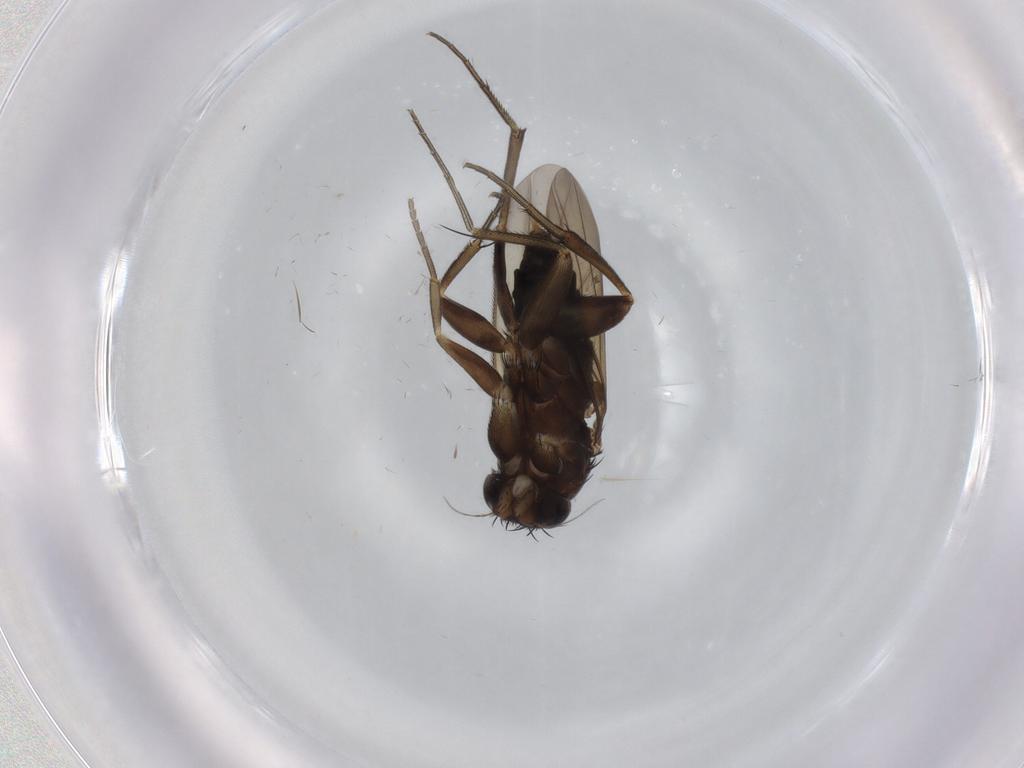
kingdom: Animalia
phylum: Arthropoda
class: Insecta
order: Diptera
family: Phoridae
